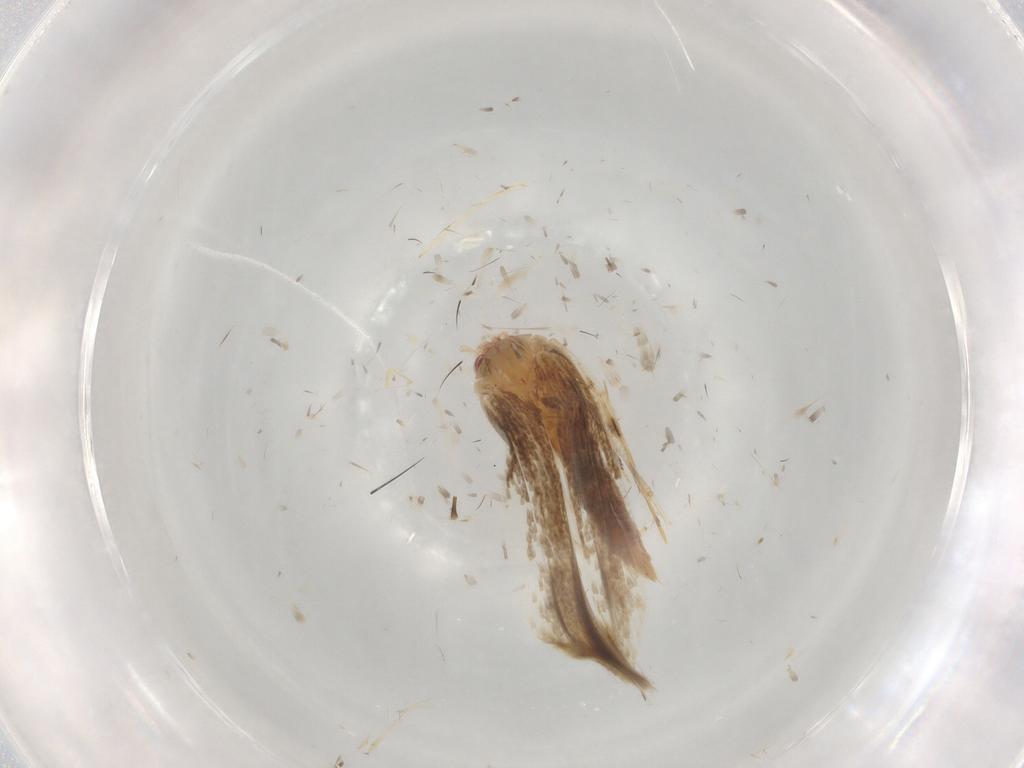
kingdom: Animalia
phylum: Arthropoda
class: Insecta
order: Lepidoptera
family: Cosmopterigidae
